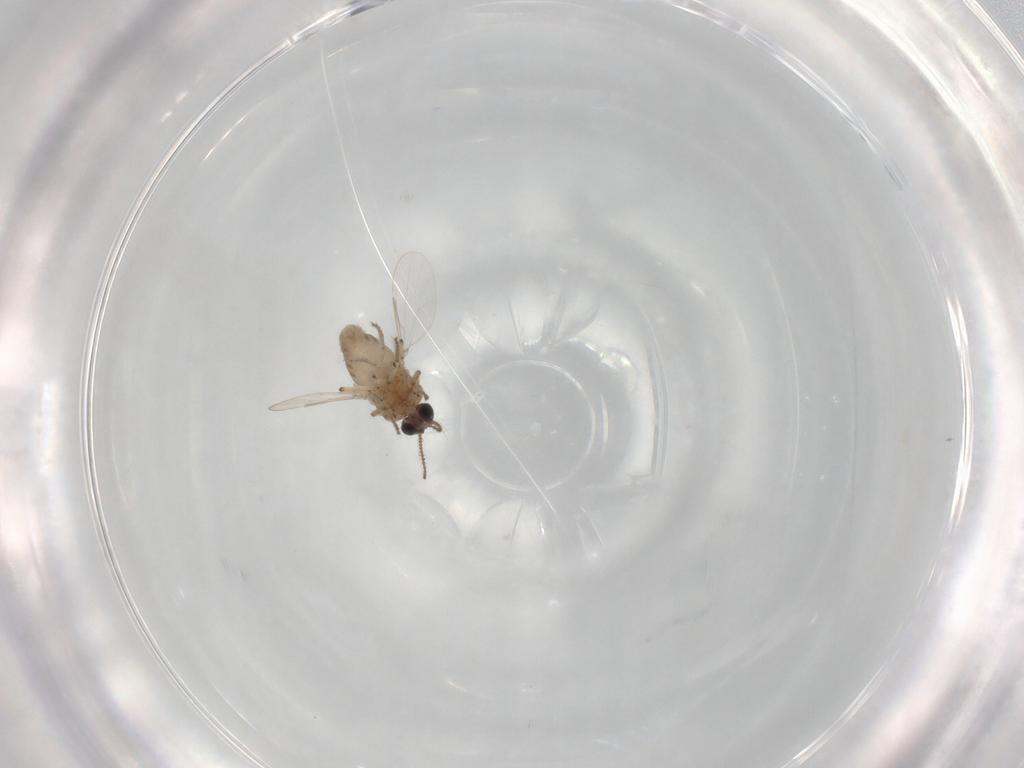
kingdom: Animalia
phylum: Arthropoda
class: Insecta
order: Diptera
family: Ceratopogonidae
